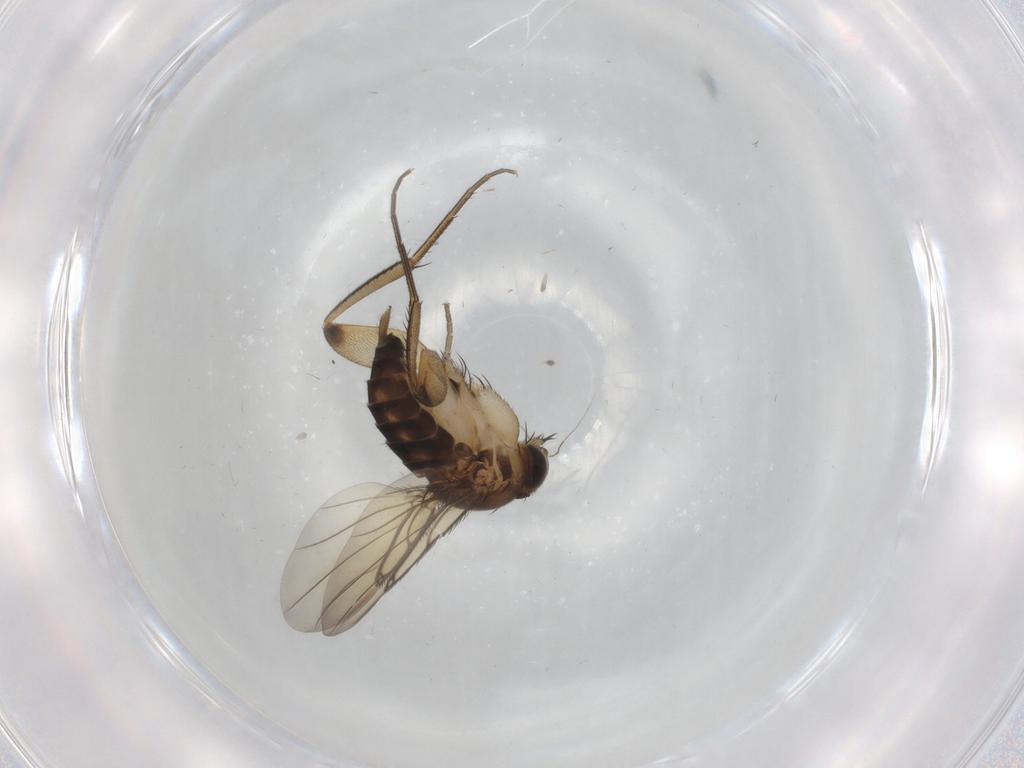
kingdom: Animalia
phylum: Arthropoda
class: Insecta
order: Diptera
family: Phoridae
